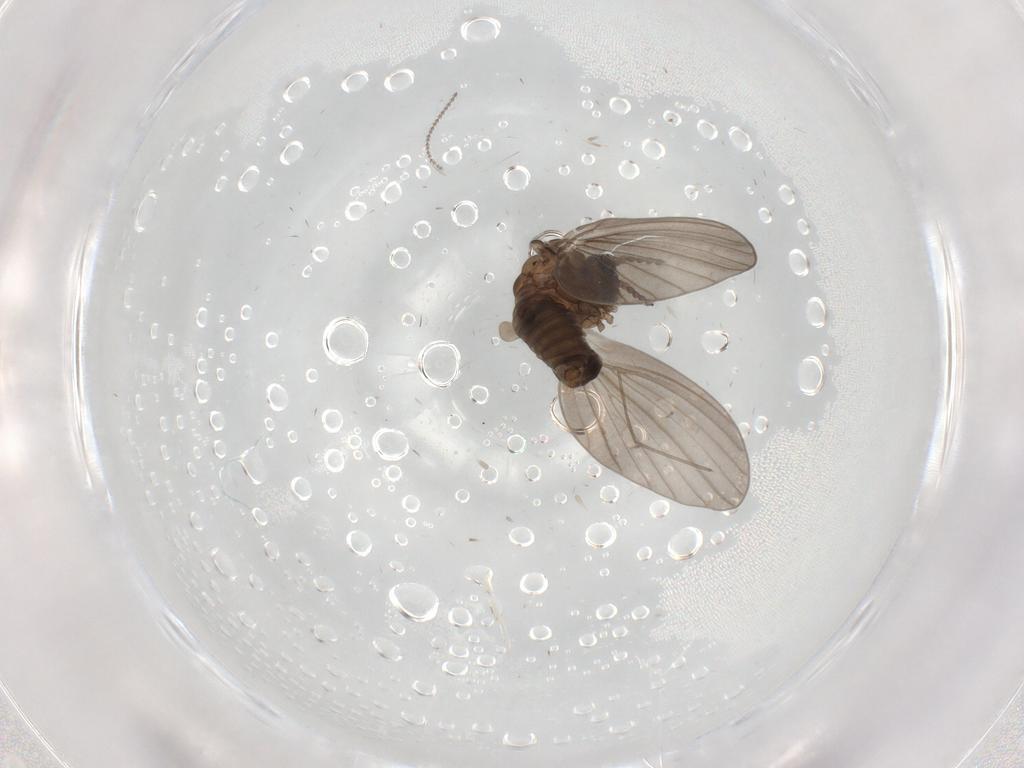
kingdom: Animalia
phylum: Arthropoda
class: Insecta
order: Diptera
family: Psychodidae
